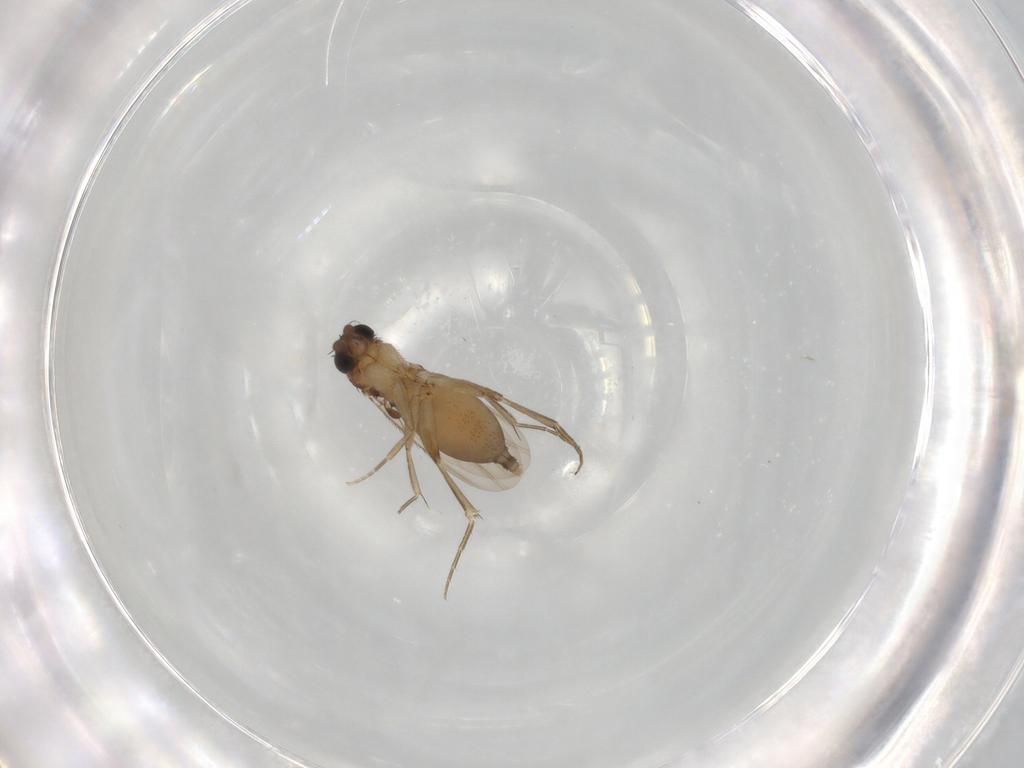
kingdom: Animalia
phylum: Arthropoda
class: Insecta
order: Diptera
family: Phoridae
